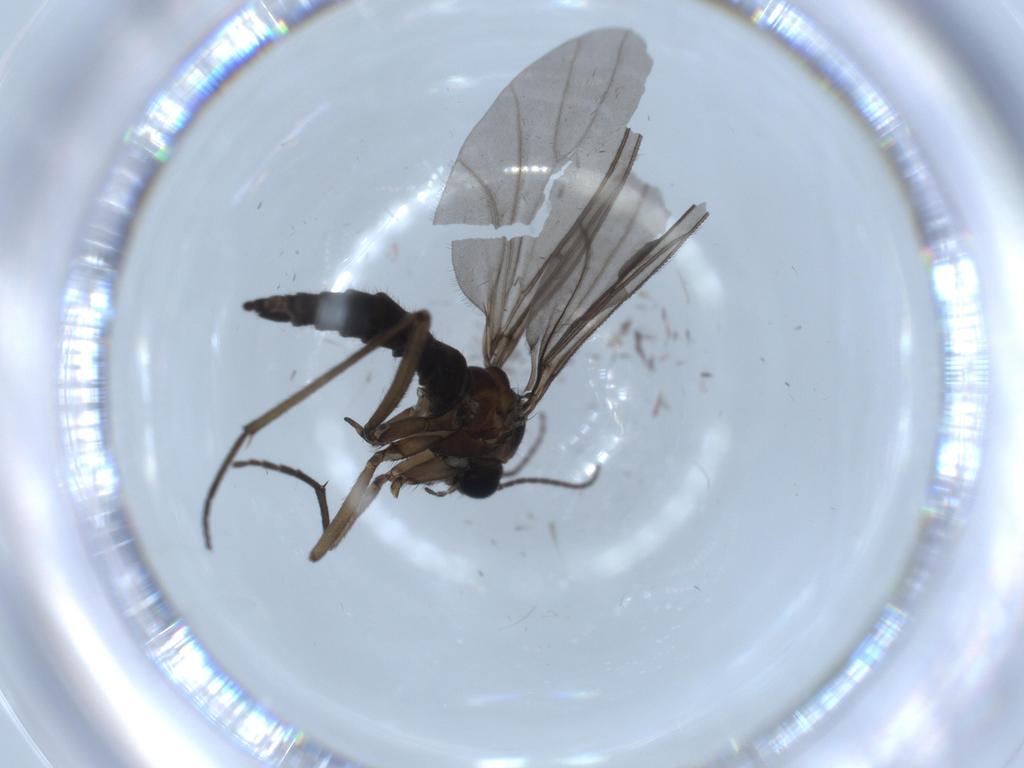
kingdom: Animalia
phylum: Arthropoda
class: Insecta
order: Diptera
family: Sciaridae
